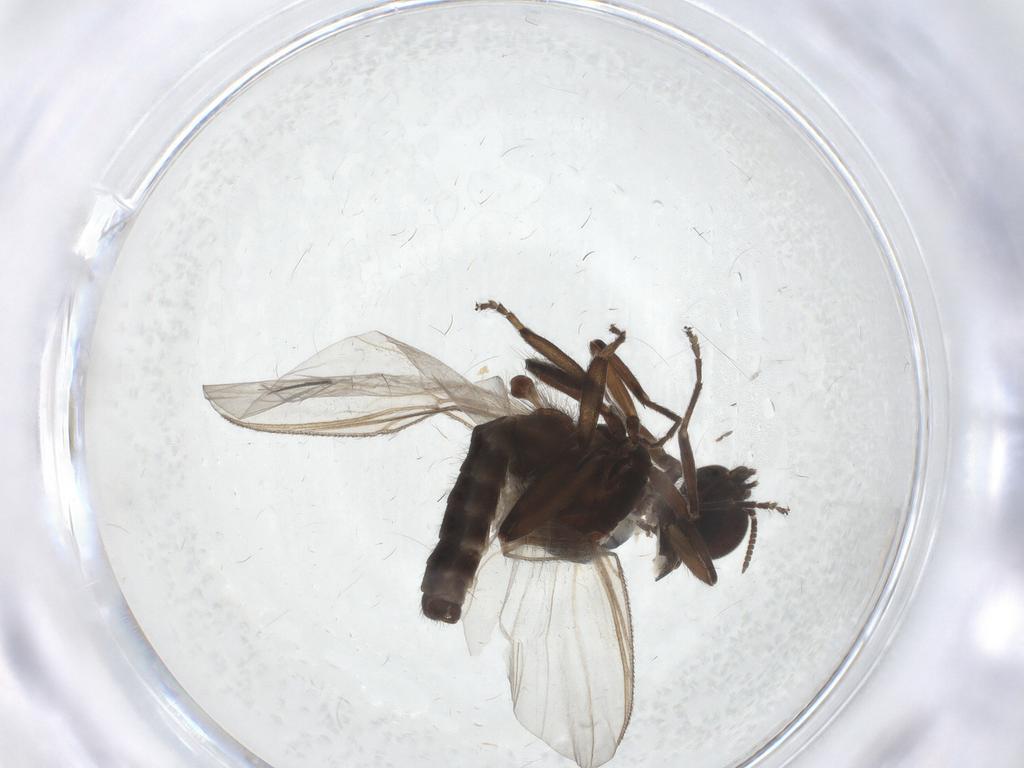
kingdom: Animalia
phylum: Arthropoda
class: Insecta
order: Diptera
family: Simuliidae
